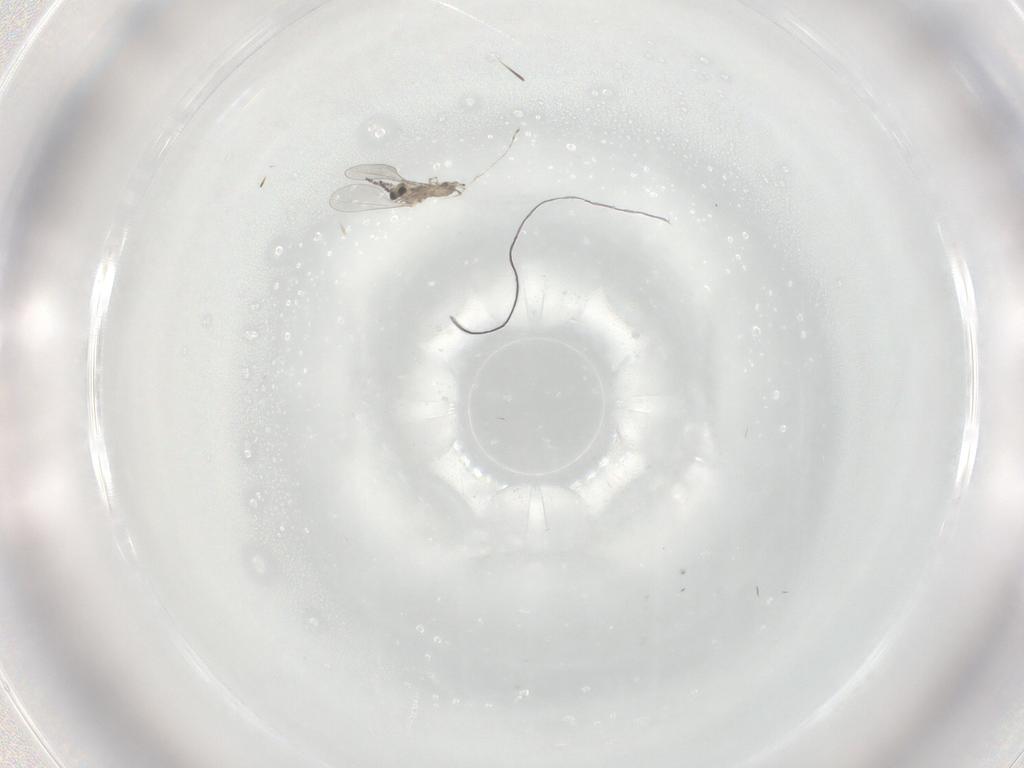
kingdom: Animalia
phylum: Arthropoda
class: Insecta
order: Diptera
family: Cecidomyiidae
